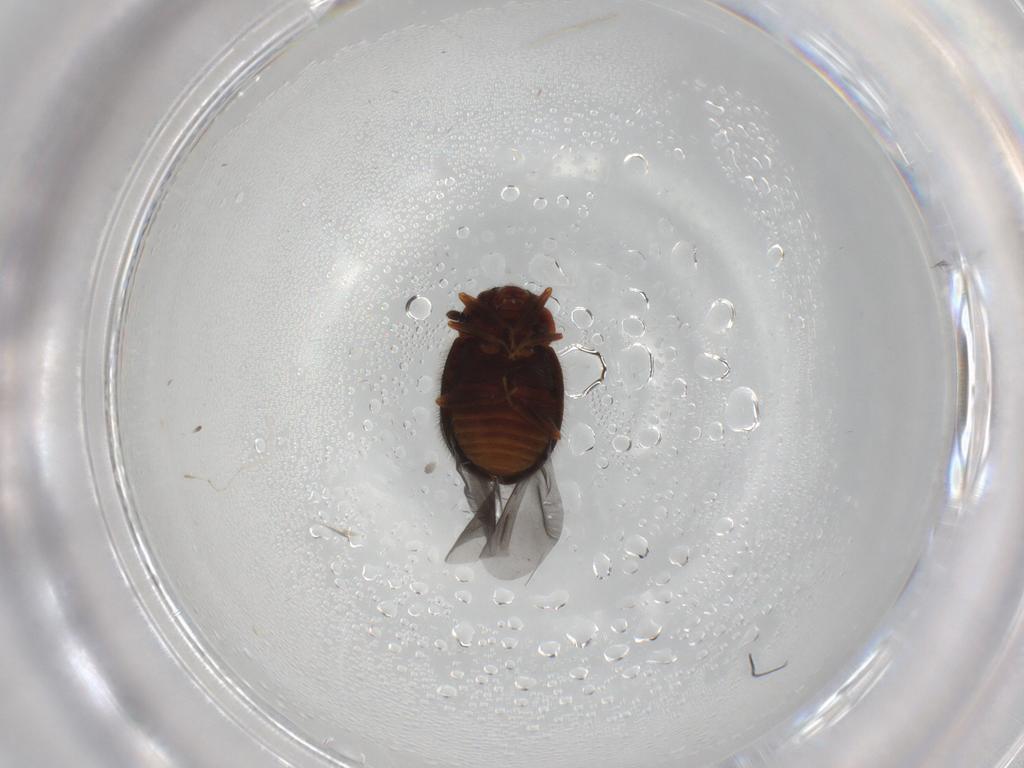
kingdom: Animalia
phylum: Arthropoda
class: Insecta
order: Coleoptera
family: Sphindidae
